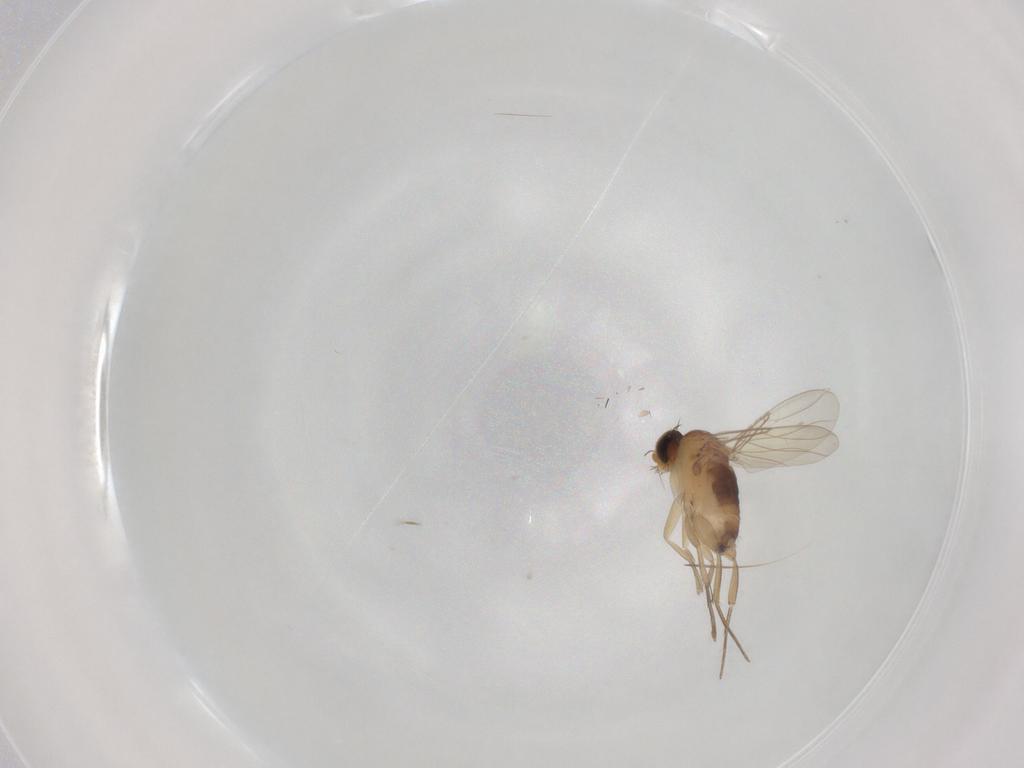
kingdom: Animalia
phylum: Arthropoda
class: Insecta
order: Diptera
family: Phoridae
